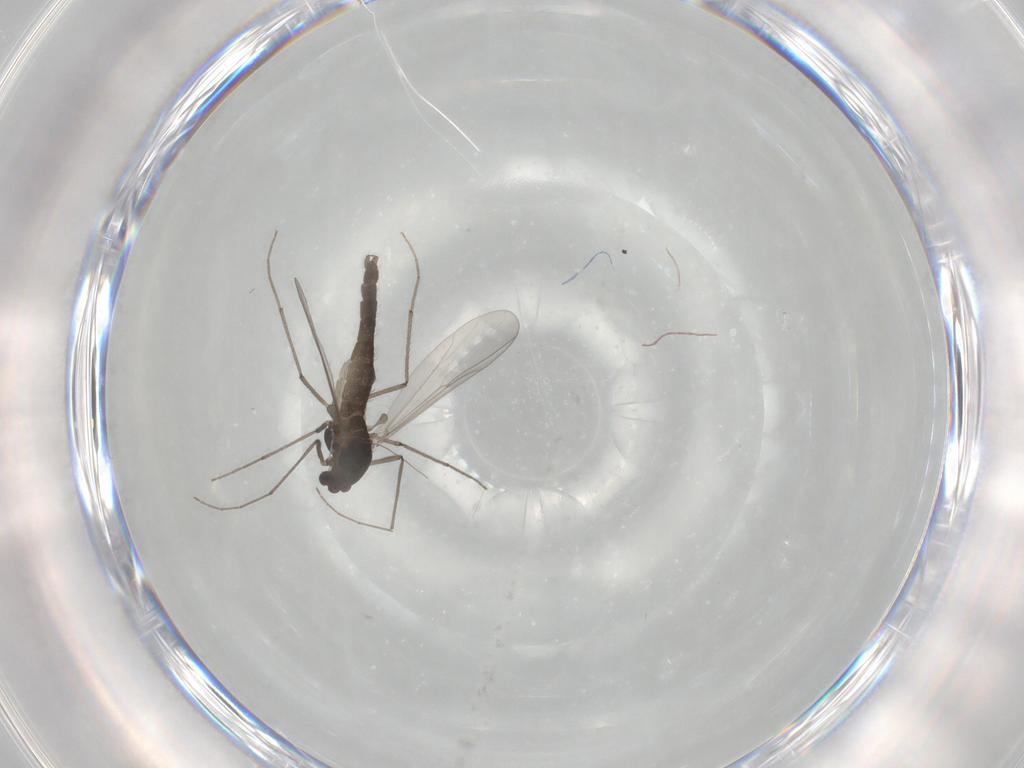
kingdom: Animalia
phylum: Arthropoda
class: Insecta
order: Diptera
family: Chironomidae
